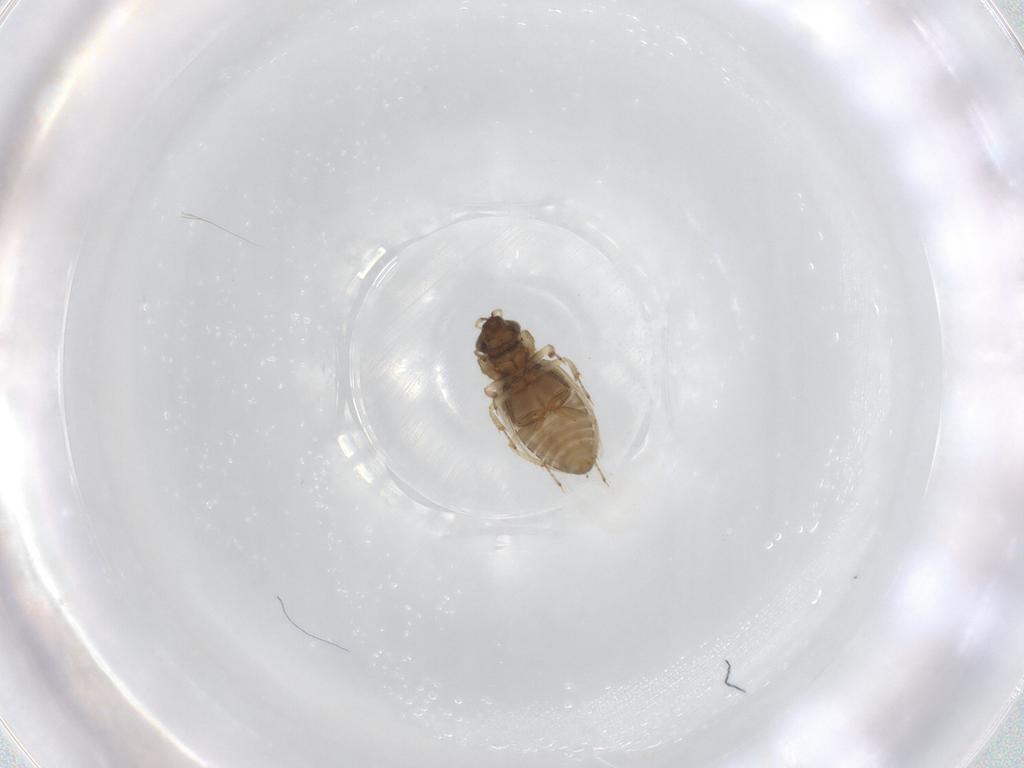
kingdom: Animalia
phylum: Arthropoda
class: Insecta
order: Coleoptera
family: Hydraenidae
